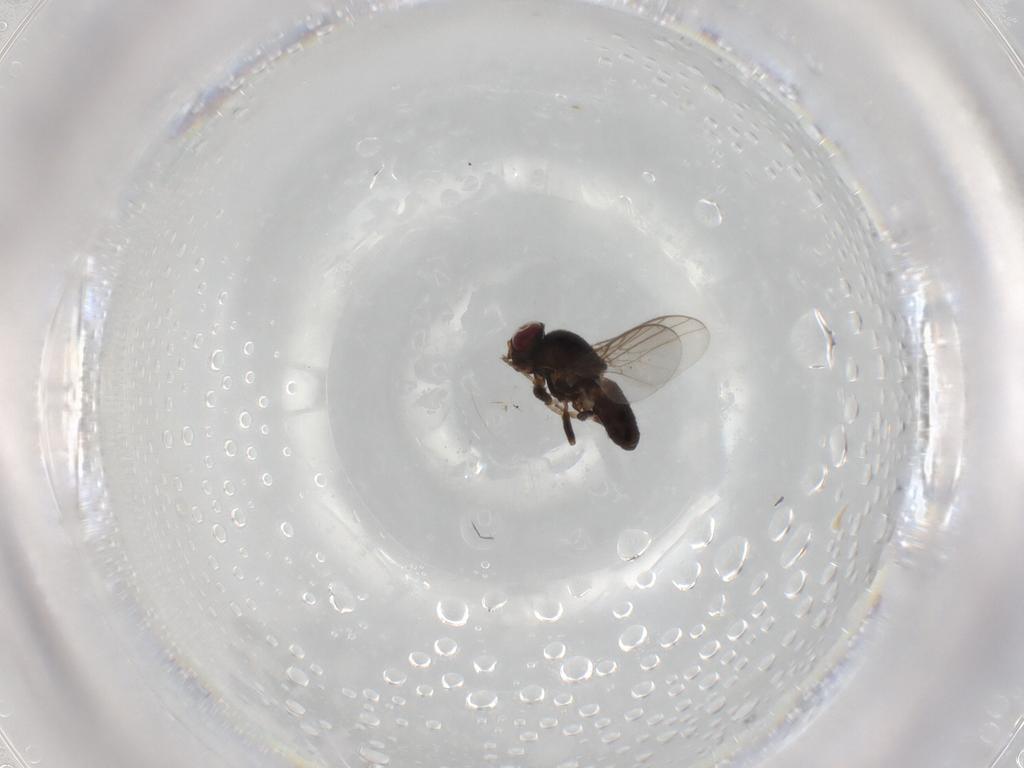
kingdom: Animalia
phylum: Arthropoda
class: Insecta
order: Diptera
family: Chloropidae
